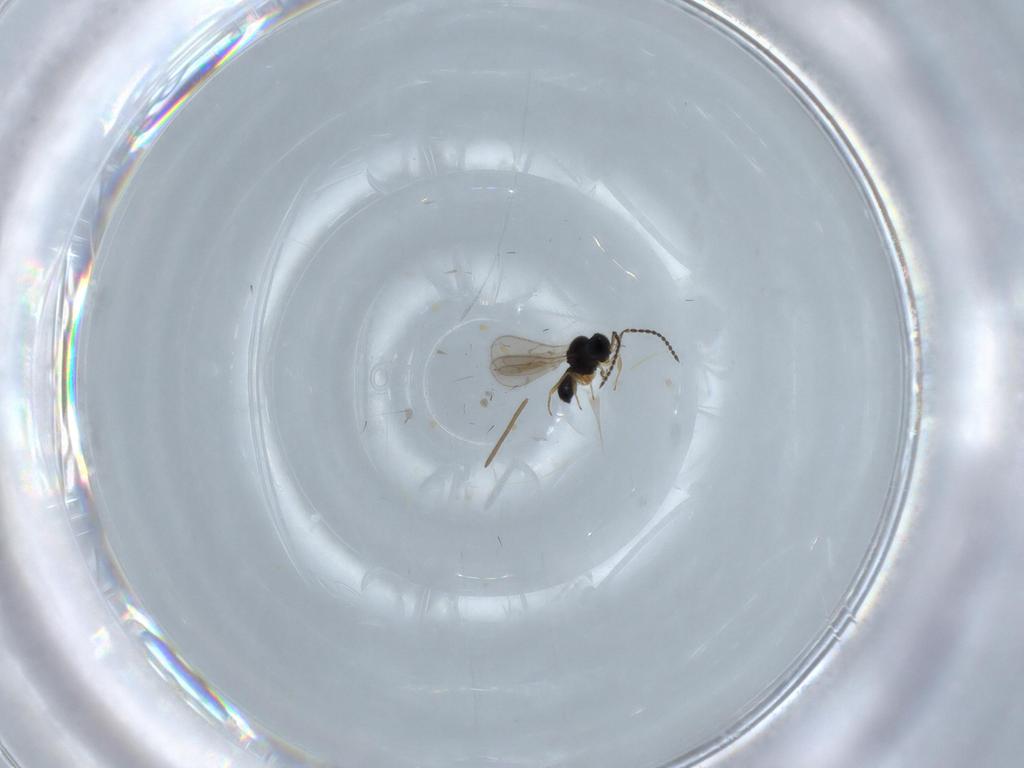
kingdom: Animalia
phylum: Arthropoda
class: Insecta
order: Hymenoptera
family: Scelionidae
